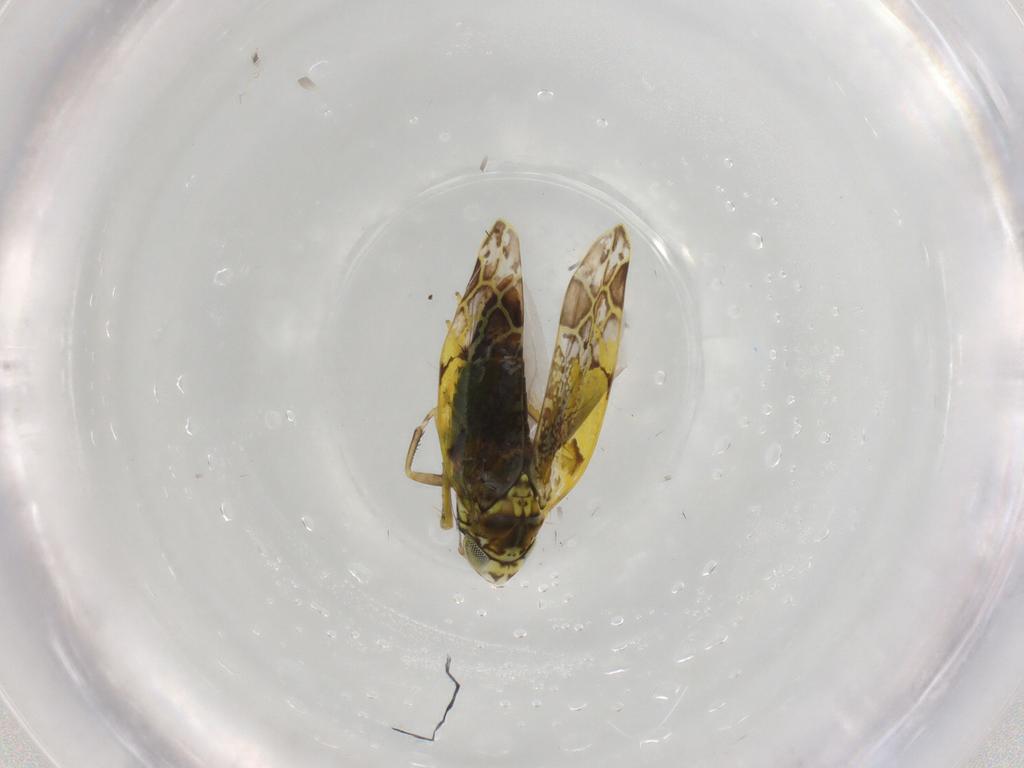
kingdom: Animalia
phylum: Arthropoda
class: Insecta
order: Hemiptera
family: Cicadellidae
